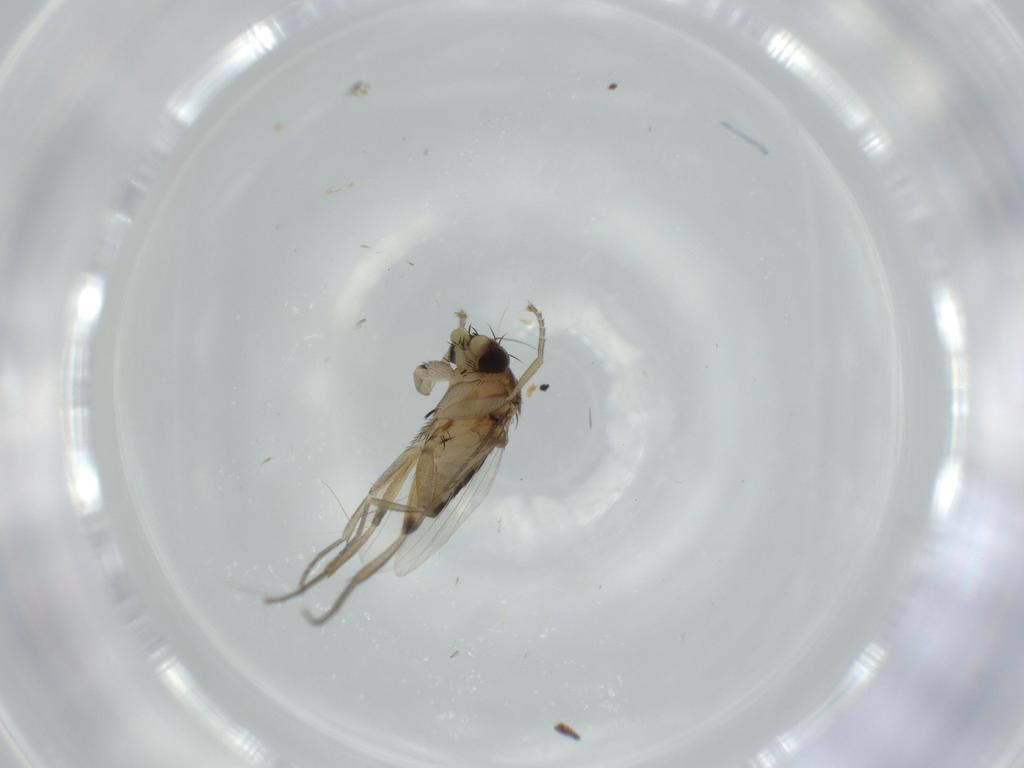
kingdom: Animalia
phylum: Arthropoda
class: Insecta
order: Diptera
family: Phoridae
